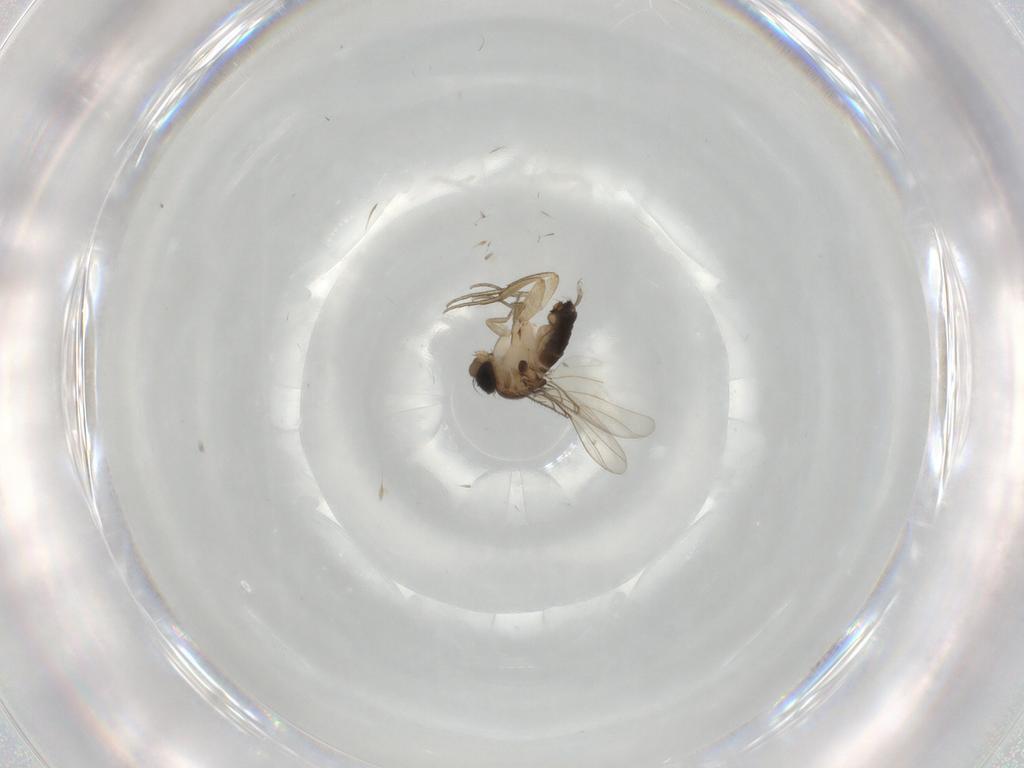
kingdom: Animalia
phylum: Arthropoda
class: Insecta
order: Diptera
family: Phoridae
